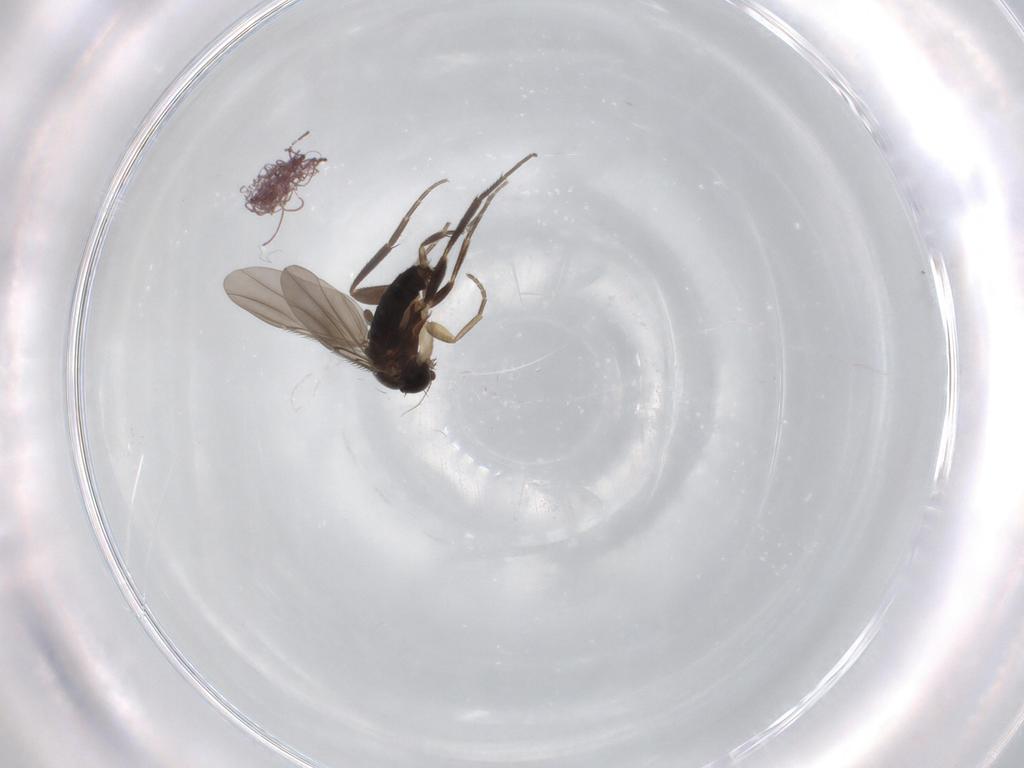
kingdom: Animalia
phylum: Arthropoda
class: Insecta
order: Diptera
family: Phoridae
